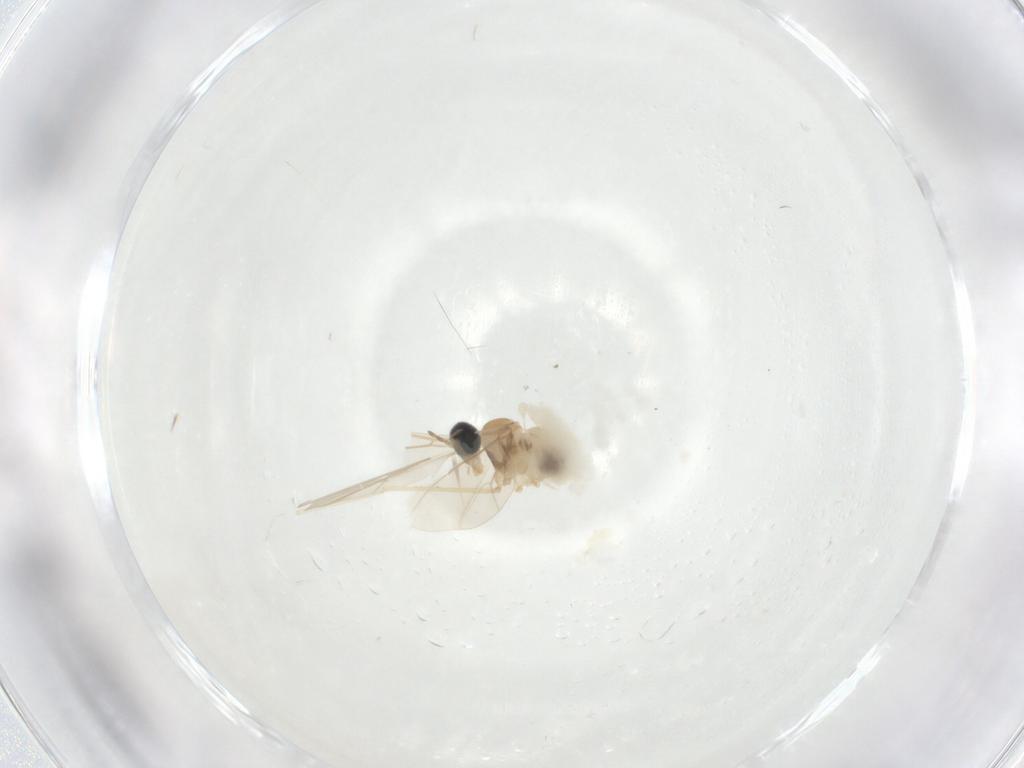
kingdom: Animalia
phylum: Arthropoda
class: Insecta
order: Diptera
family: Cecidomyiidae
